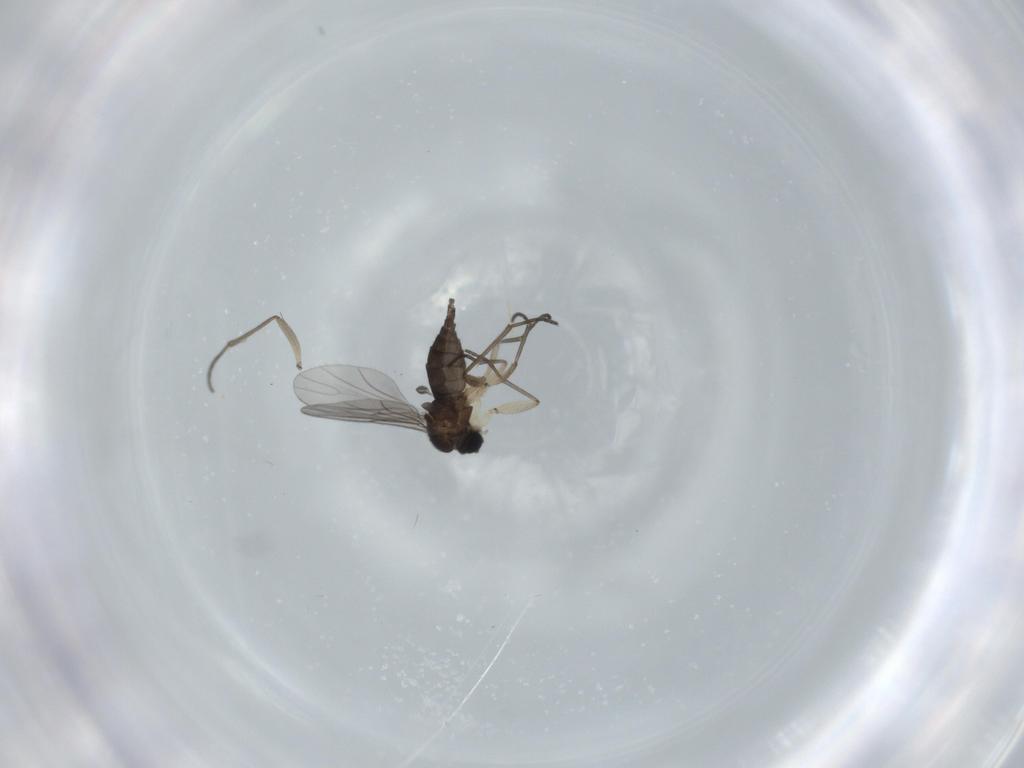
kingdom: Animalia
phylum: Arthropoda
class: Insecta
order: Diptera
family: Sciaridae
